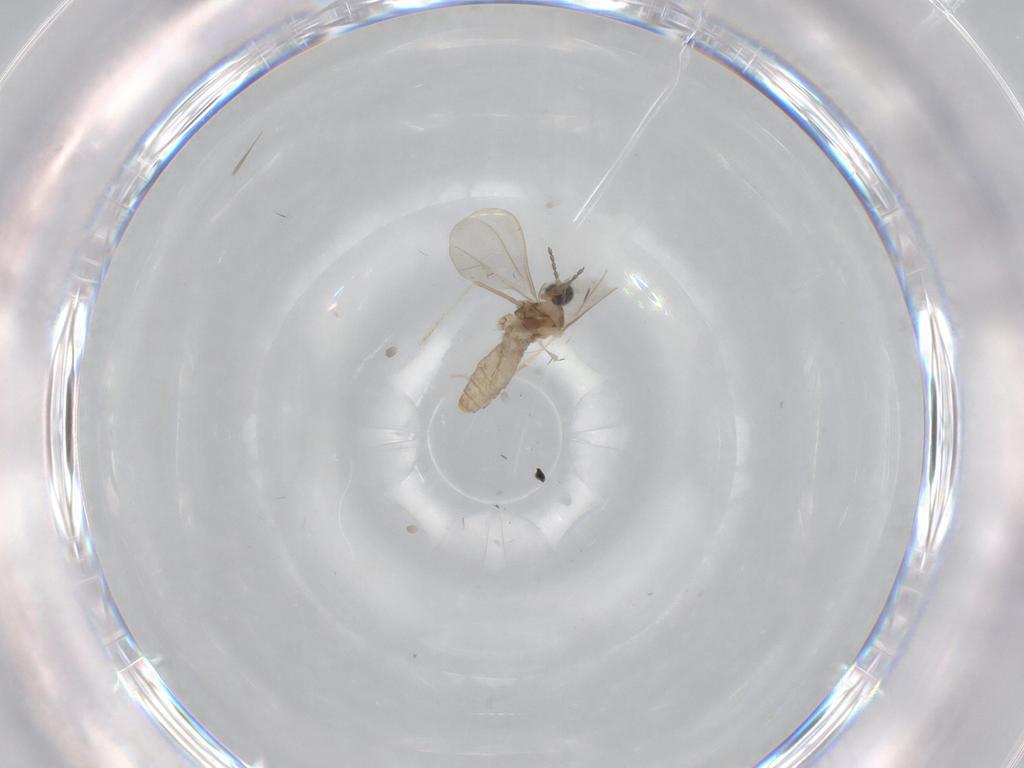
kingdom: Animalia
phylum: Arthropoda
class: Insecta
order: Diptera
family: Cecidomyiidae
